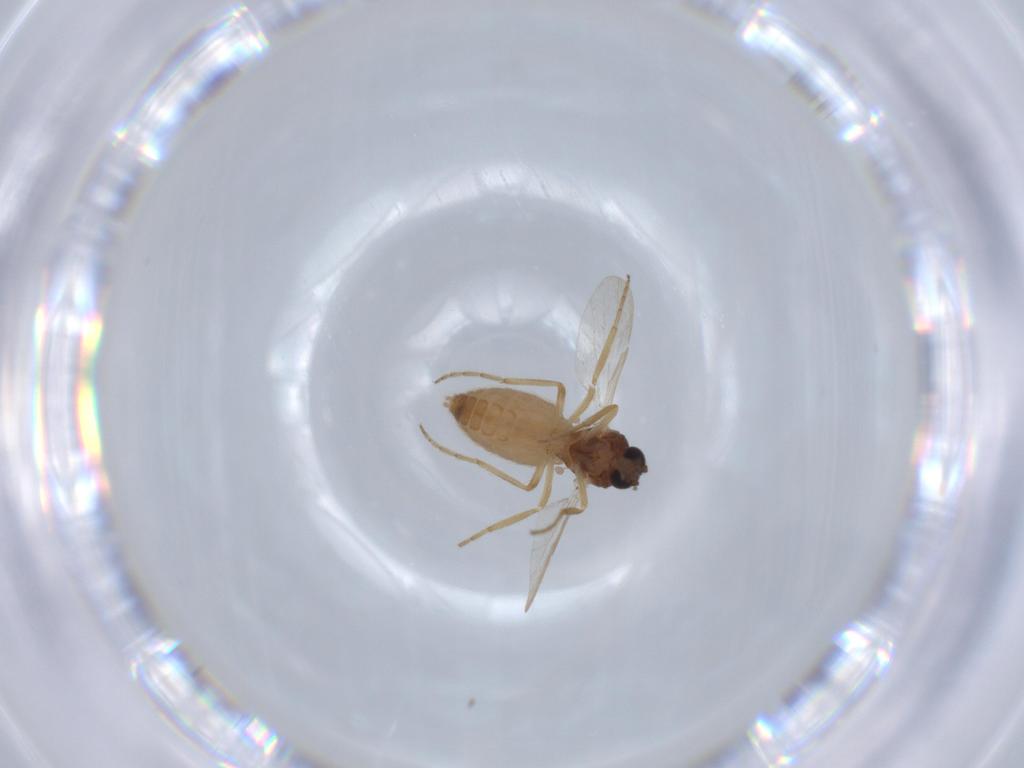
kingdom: Animalia
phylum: Arthropoda
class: Insecta
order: Diptera
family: Ceratopogonidae
